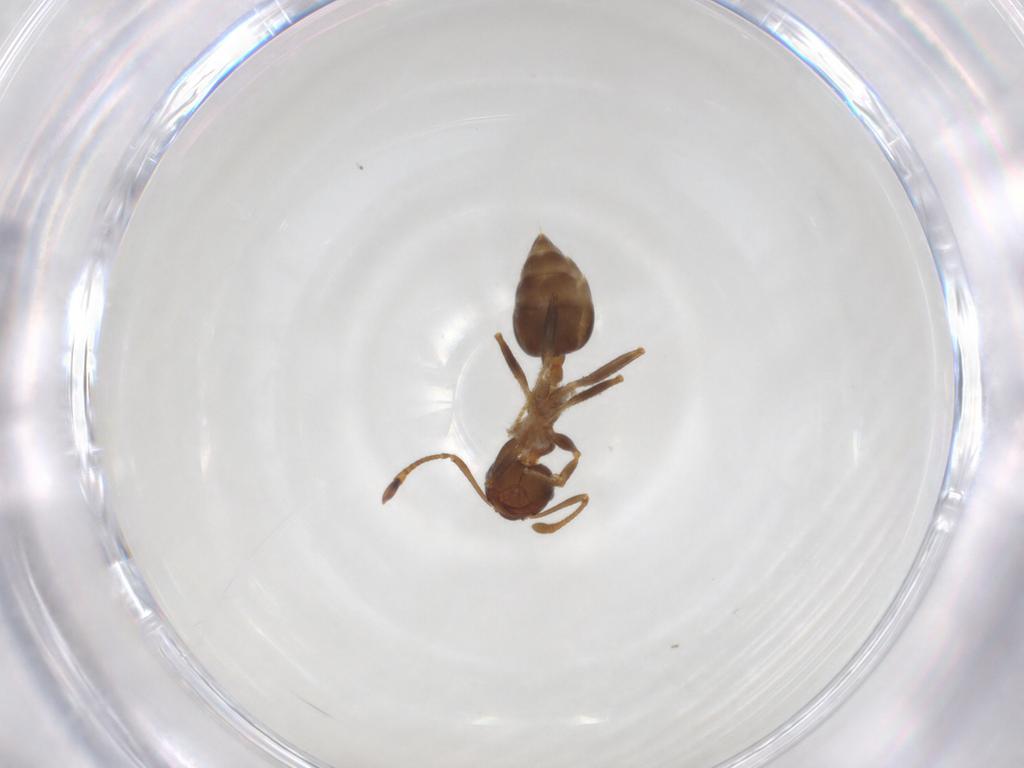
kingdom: Animalia
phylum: Arthropoda
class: Insecta
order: Hymenoptera
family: Formicidae
